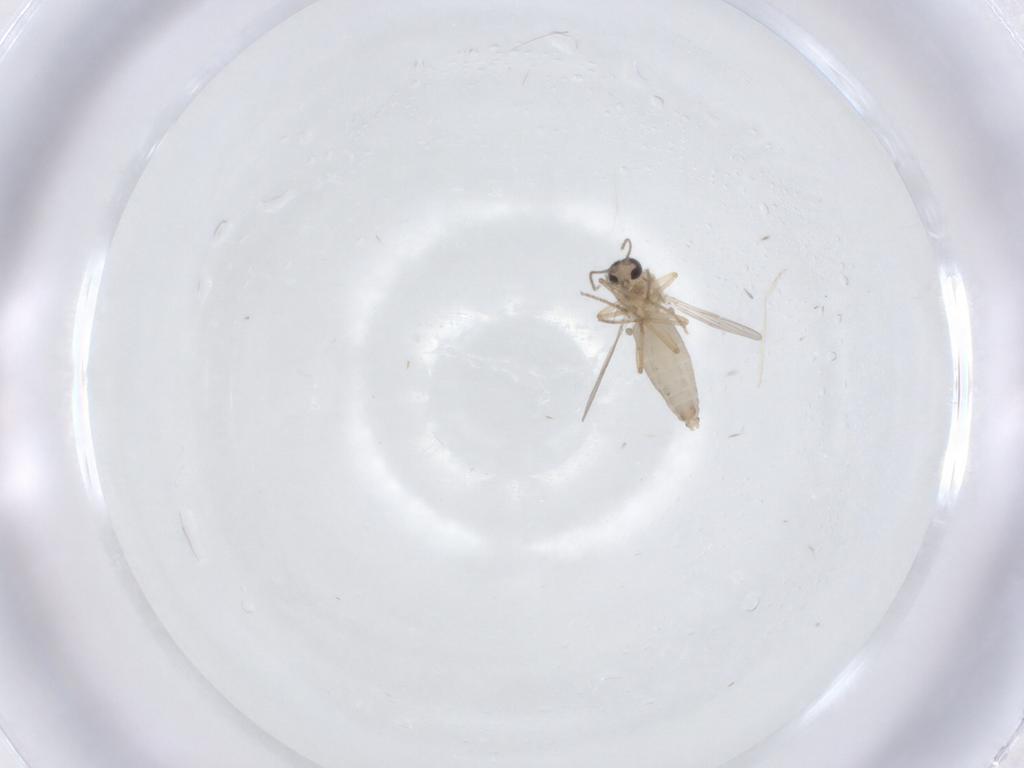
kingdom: Animalia
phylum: Arthropoda
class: Insecta
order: Diptera
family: Ceratopogonidae
